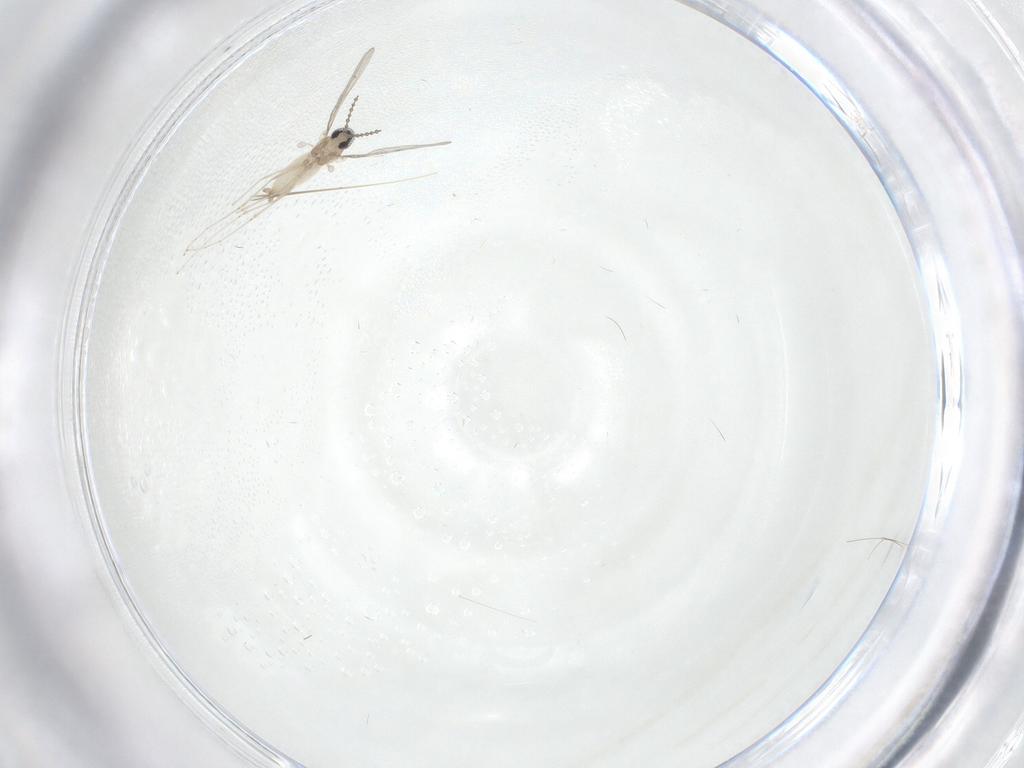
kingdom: Animalia
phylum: Arthropoda
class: Insecta
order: Diptera
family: Cecidomyiidae
